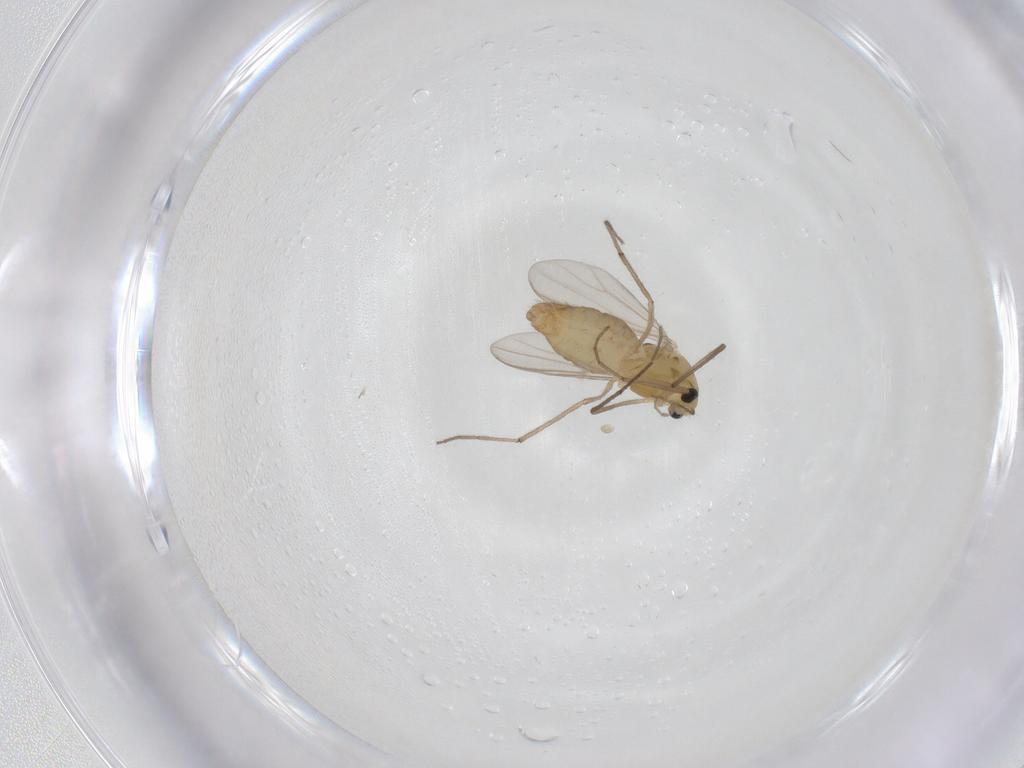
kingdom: Animalia
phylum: Arthropoda
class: Insecta
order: Diptera
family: Chironomidae
